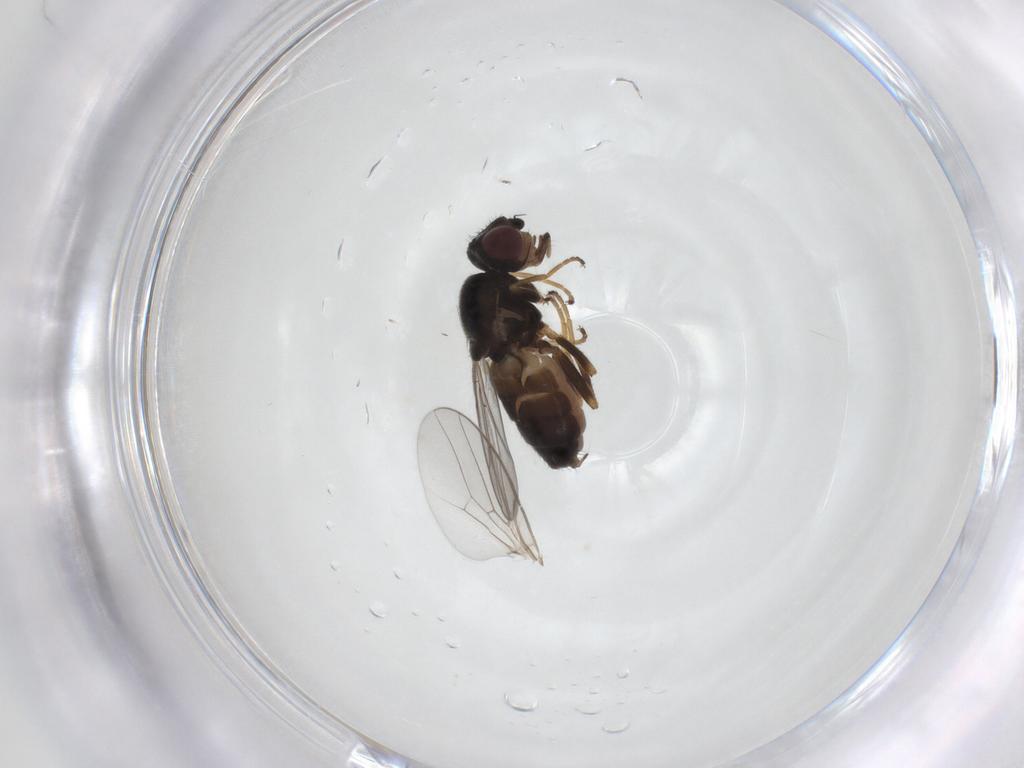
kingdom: Animalia
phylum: Arthropoda
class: Insecta
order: Diptera
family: Chloropidae
